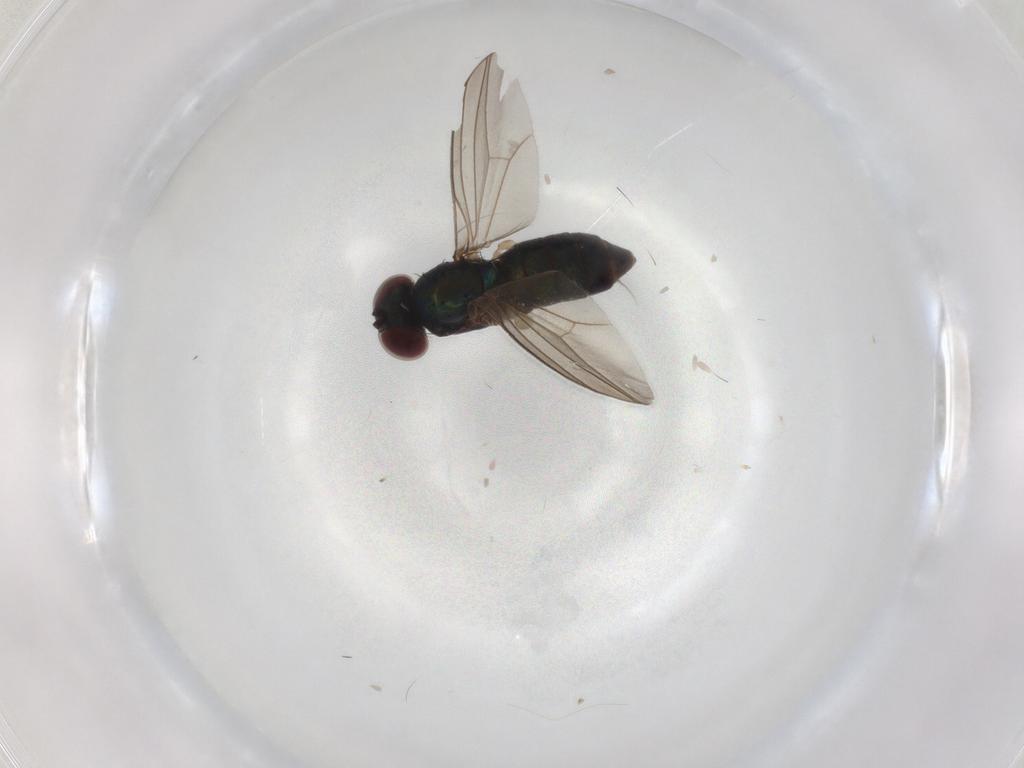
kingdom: Animalia
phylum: Arthropoda
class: Insecta
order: Diptera
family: Dolichopodidae
